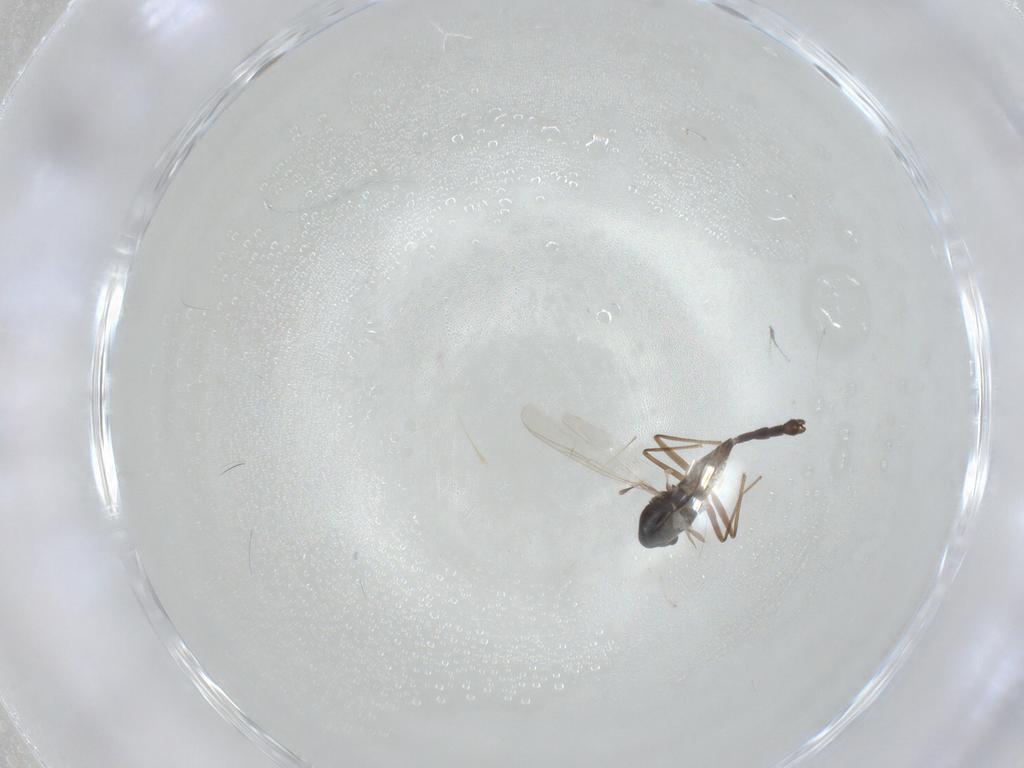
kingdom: Animalia
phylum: Arthropoda
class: Insecta
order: Diptera
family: Chironomidae
